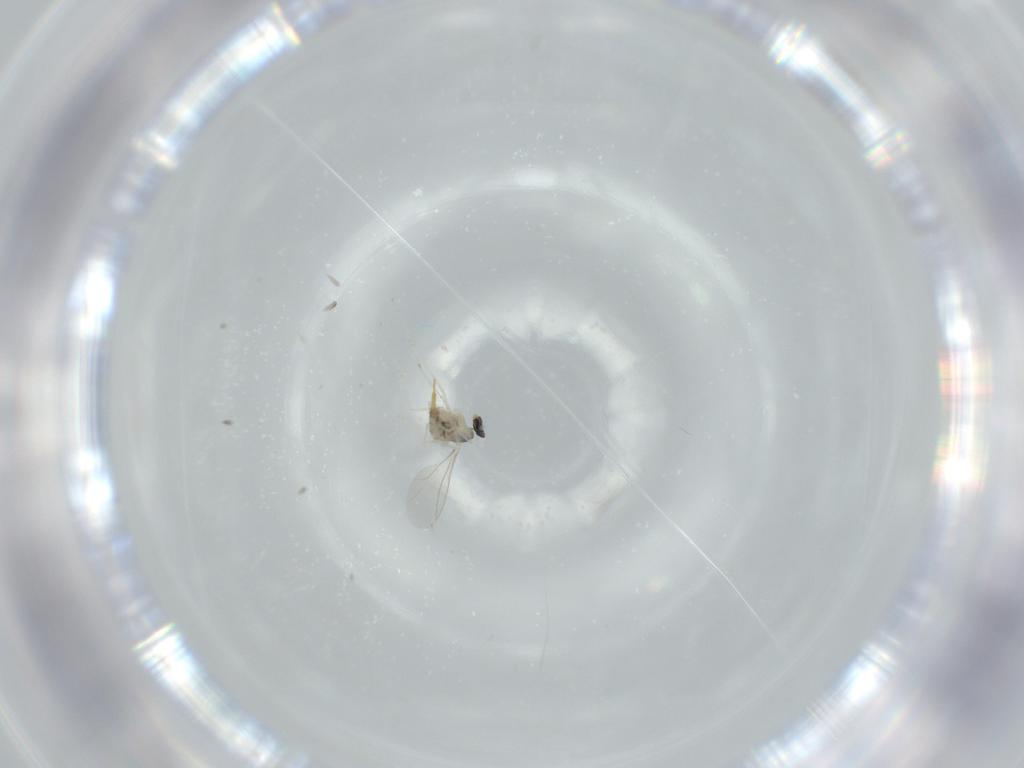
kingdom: Animalia
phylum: Arthropoda
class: Insecta
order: Diptera
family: Cecidomyiidae
